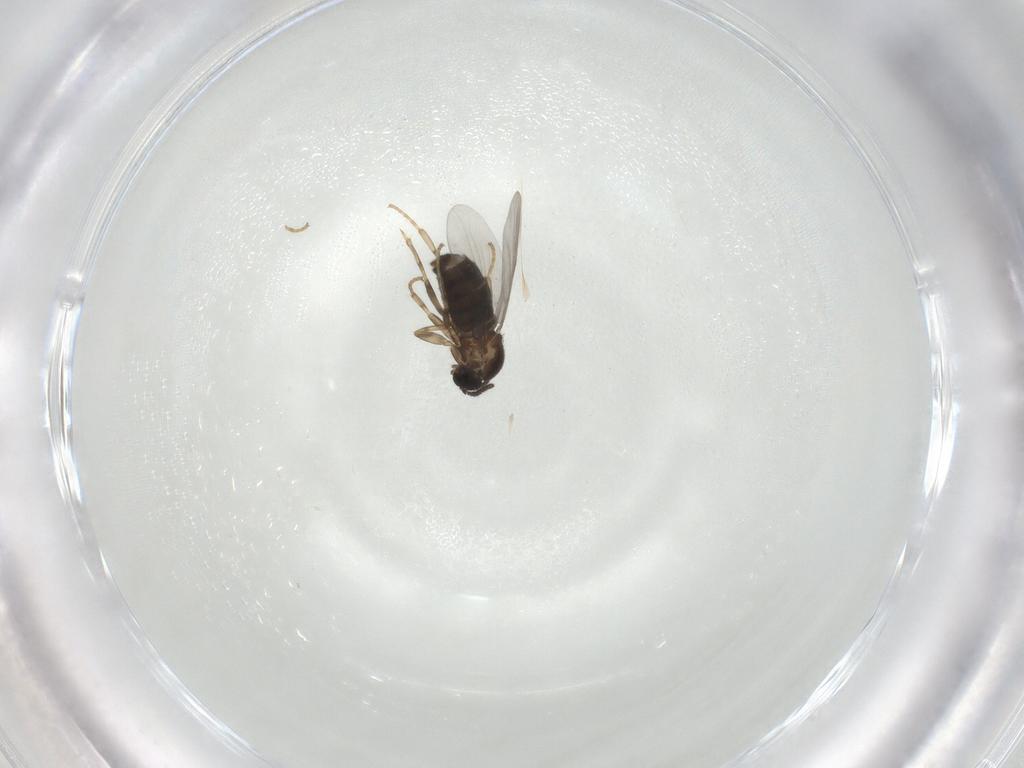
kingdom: Animalia
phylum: Arthropoda
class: Insecta
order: Diptera
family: Scatopsidae
